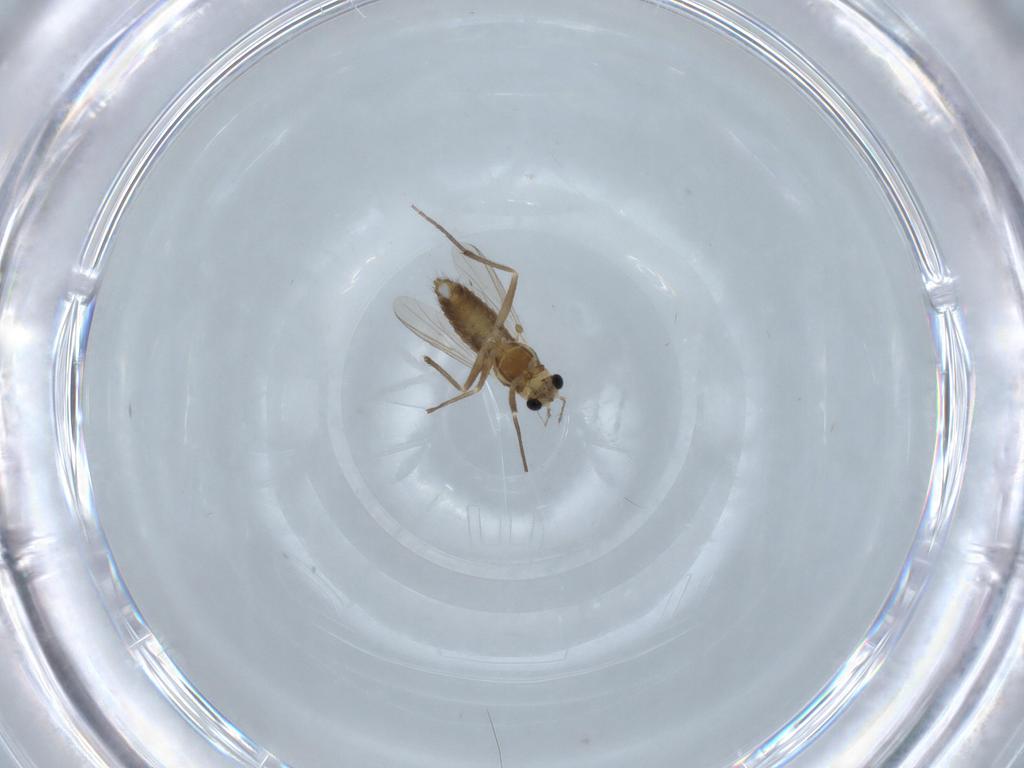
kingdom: Animalia
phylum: Arthropoda
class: Insecta
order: Diptera
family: Chironomidae
